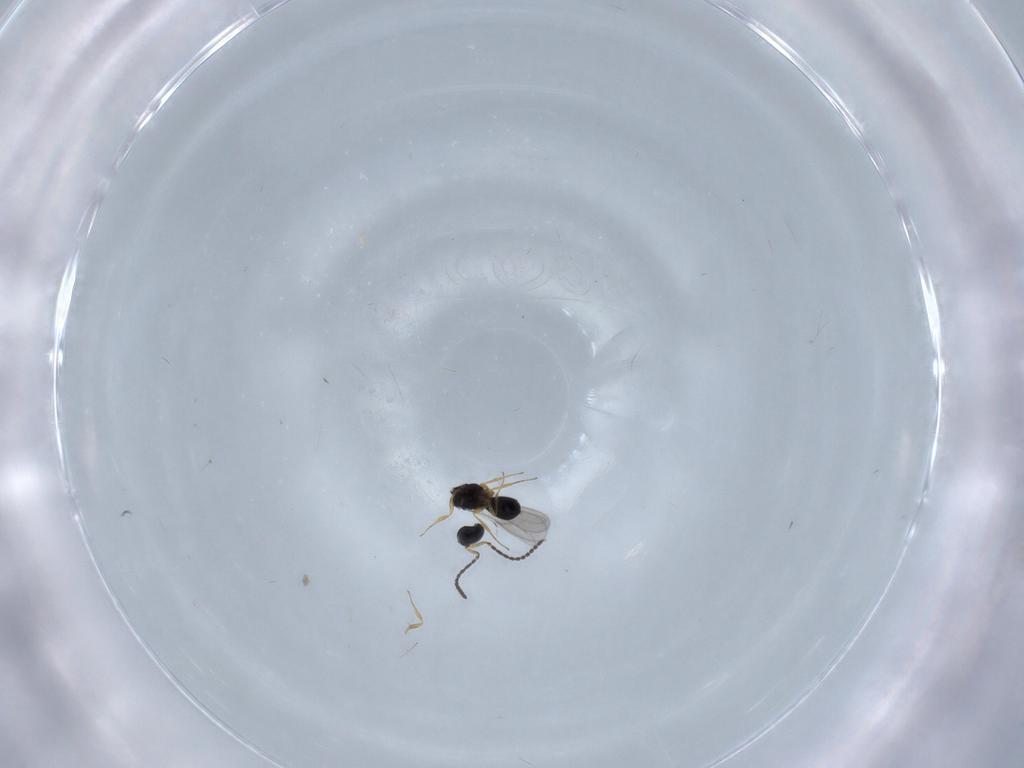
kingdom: Animalia
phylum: Arthropoda
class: Insecta
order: Hymenoptera
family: Scelionidae
